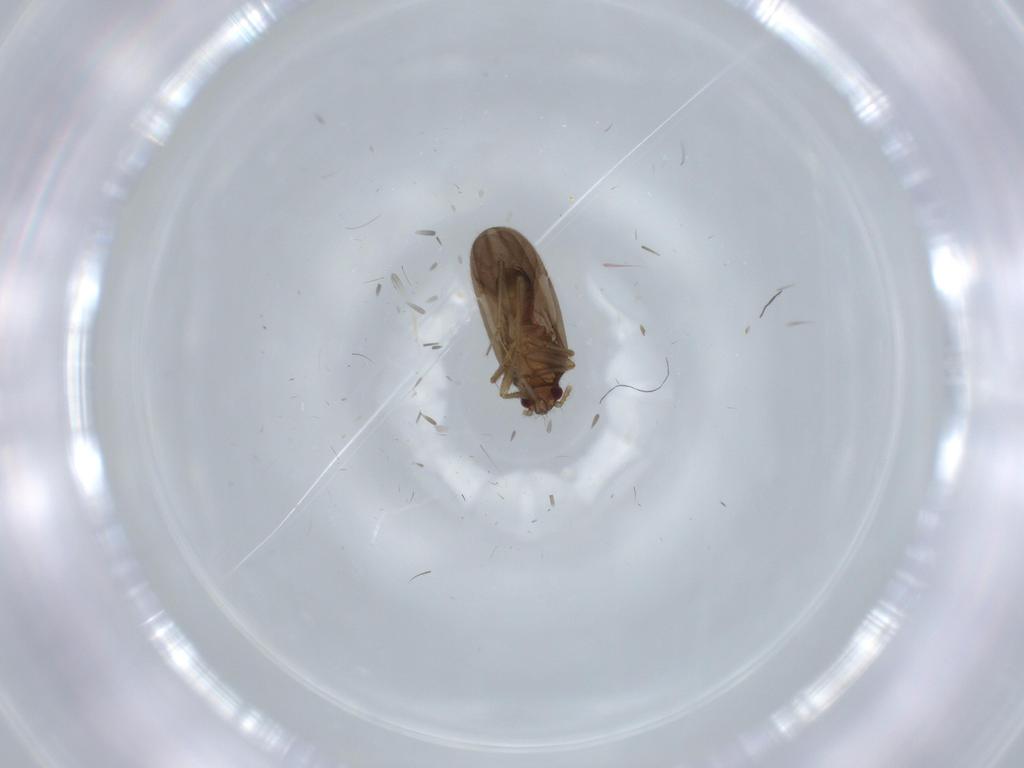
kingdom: Animalia
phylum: Arthropoda
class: Insecta
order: Hemiptera
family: Ceratocombidae
